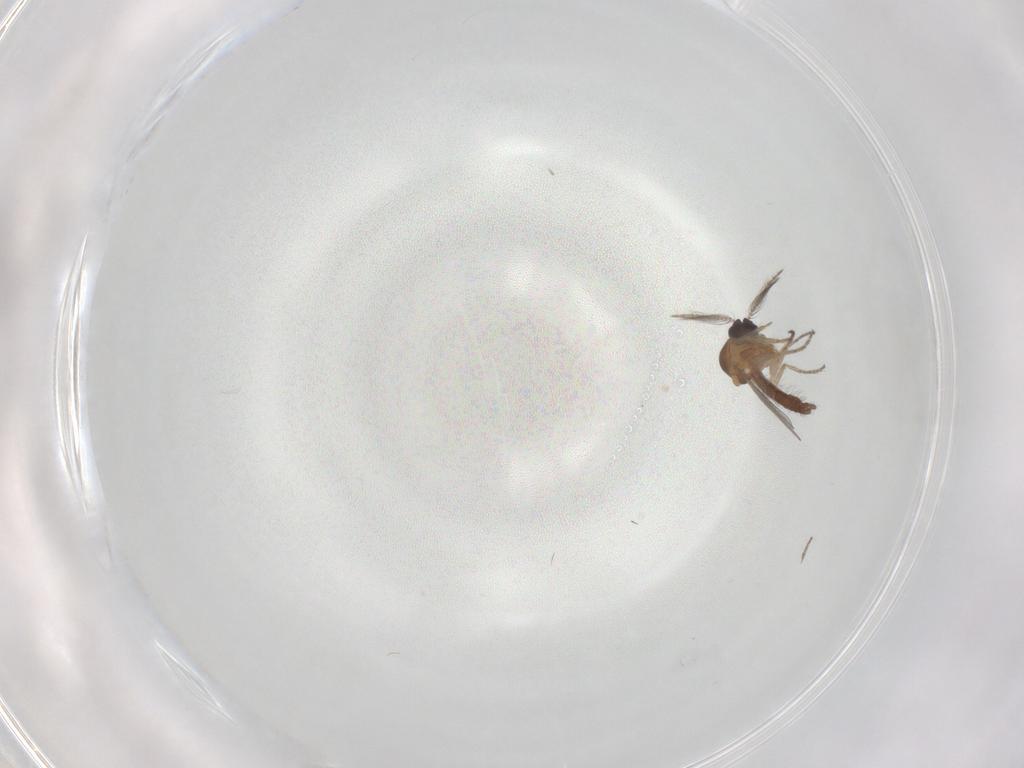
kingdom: Animalia
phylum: Arthropoda
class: Insecta
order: Diptera
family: Ceratopogonidae
